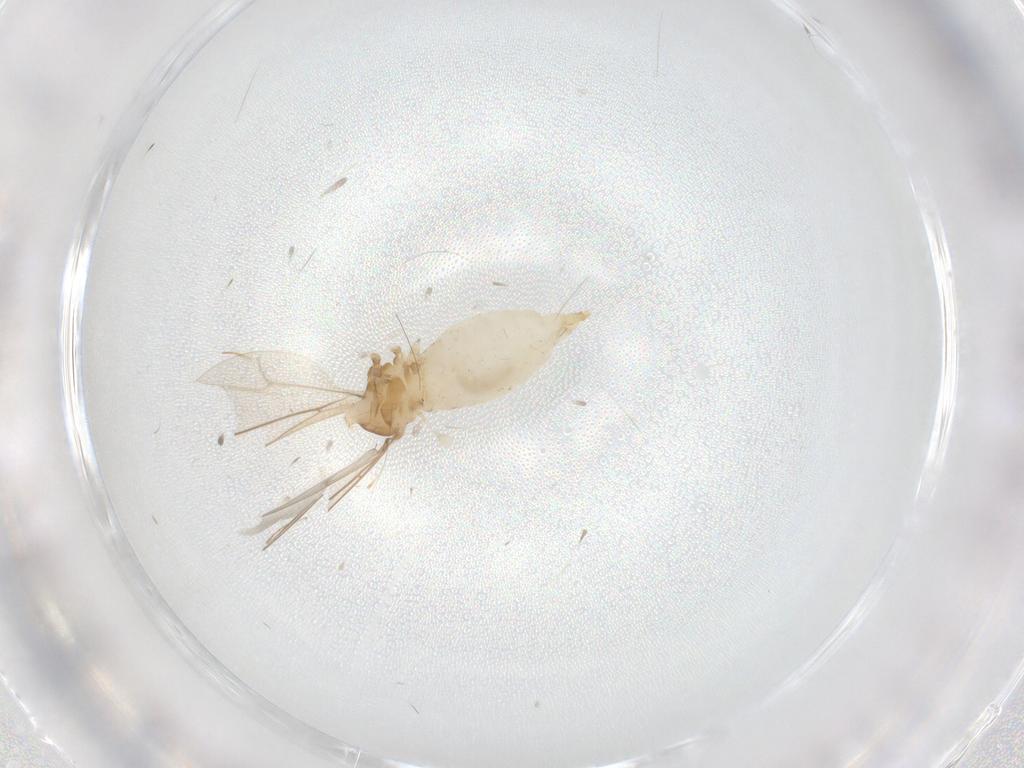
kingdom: Animalia
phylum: Arthropoda
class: Insecta
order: Diptera
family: Cecidomyiidae
